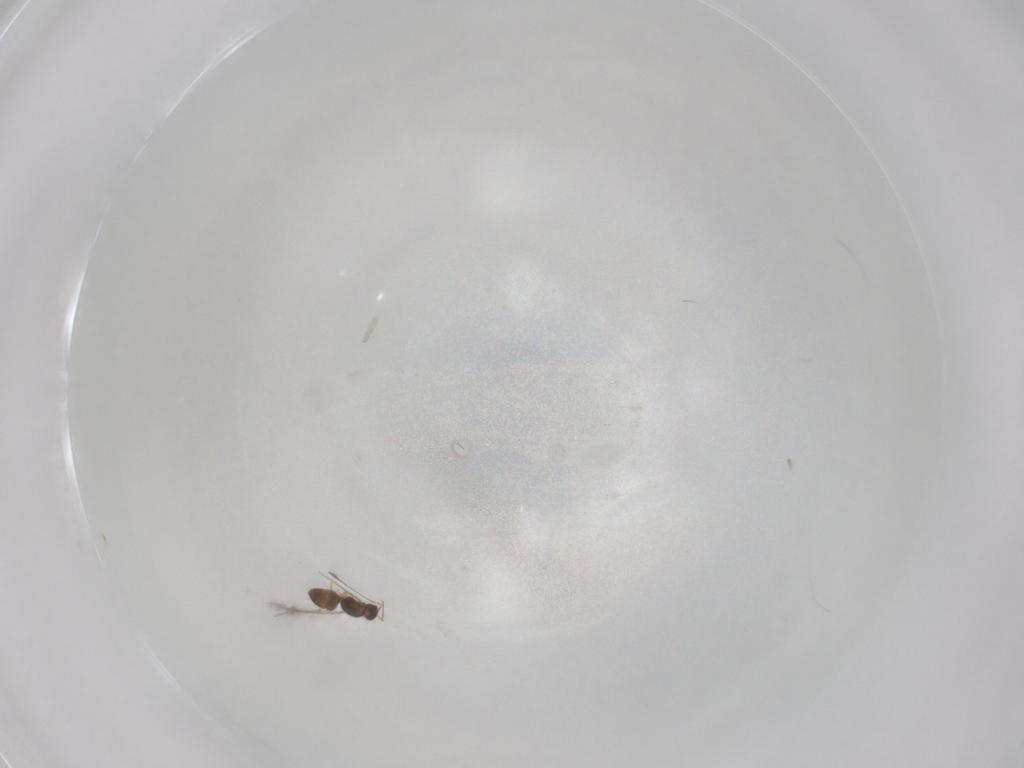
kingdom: Animalia
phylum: Arthropoda
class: Insecta
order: Hymenoptera
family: Mymaridae
